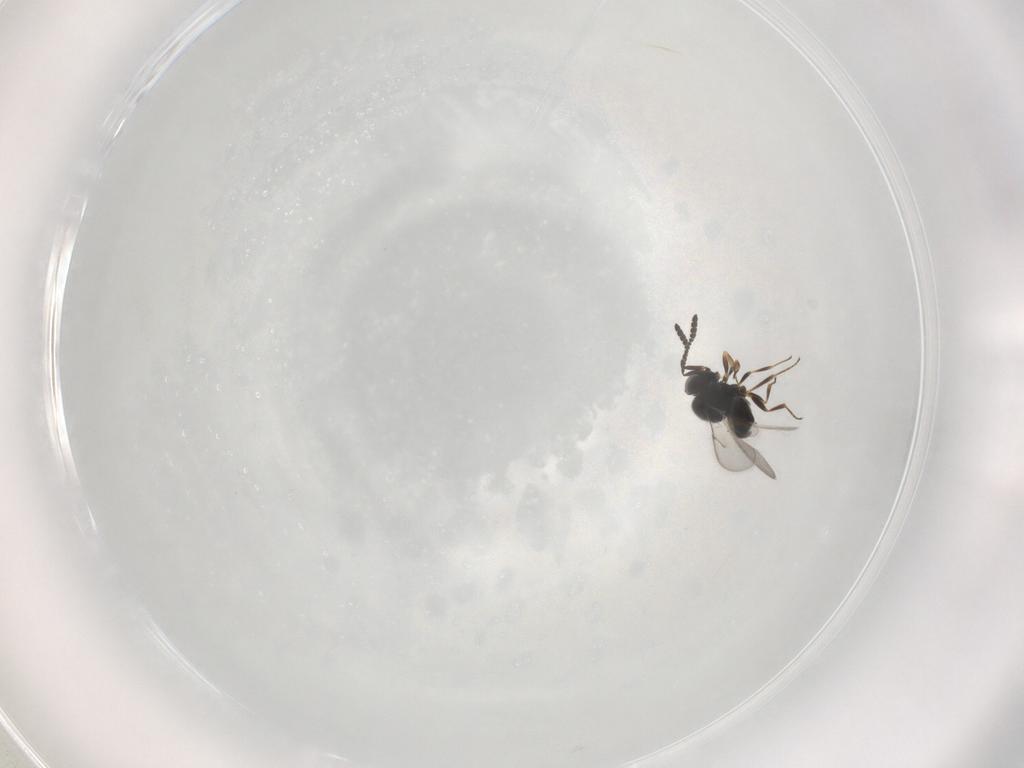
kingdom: Animalia
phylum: Arthropoda
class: Insecta
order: Hymenoptera
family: Scelionidae
